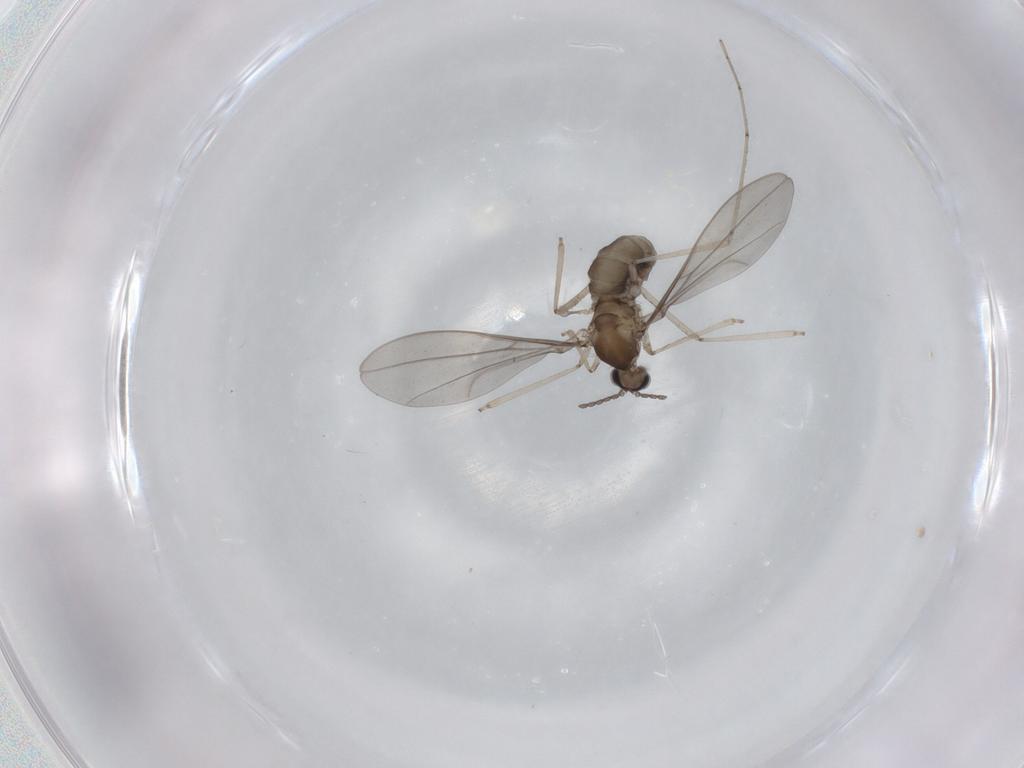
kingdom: Animalia
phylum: Arthropoda
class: Insecta
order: Diptera
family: Cecidomyiidae
